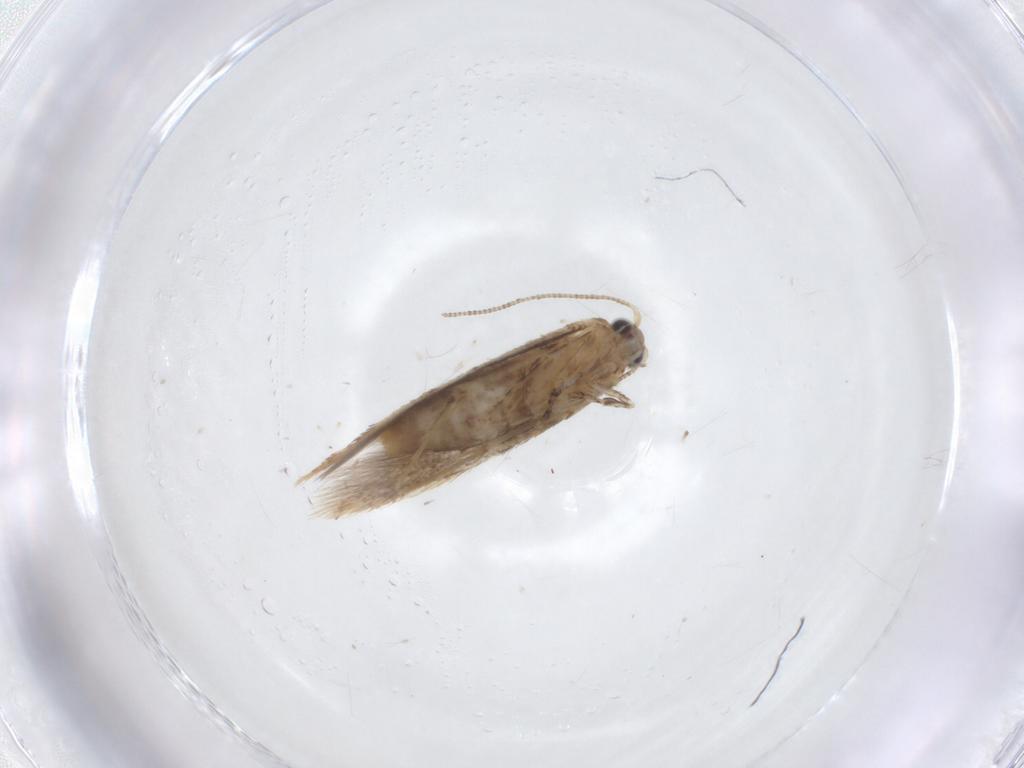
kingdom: Animalia
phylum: Arthropoda
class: Insecta
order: Lepidoptera
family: Tineidae
